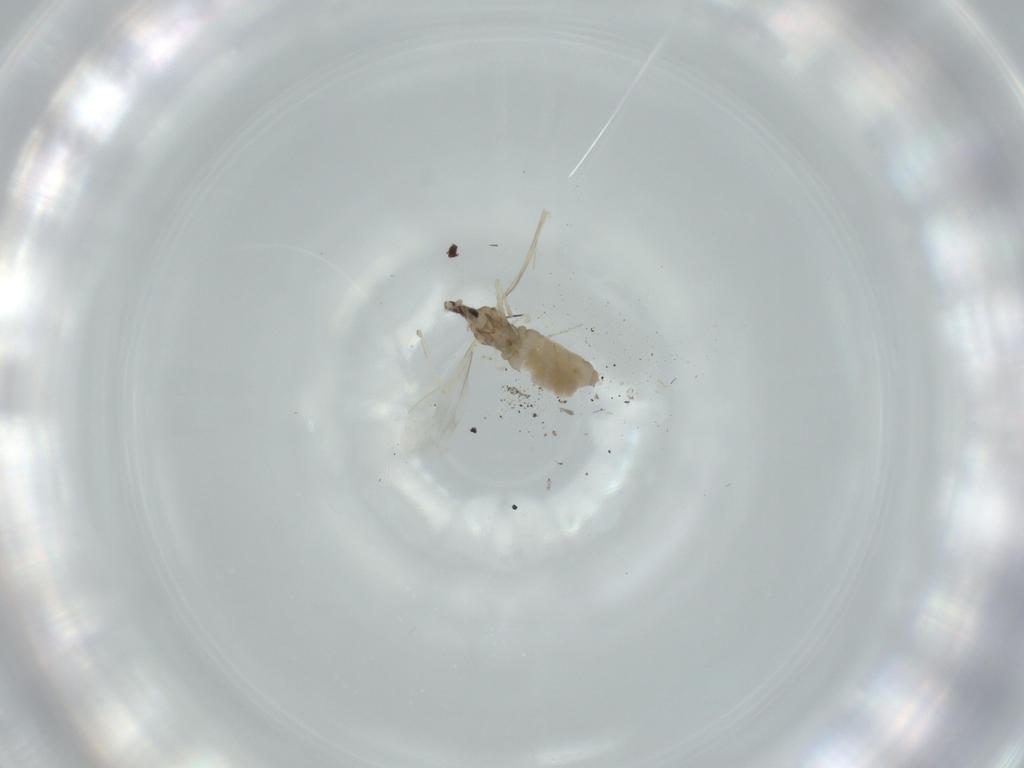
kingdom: Animalia
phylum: Arthropoda
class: Insecta
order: Diptera
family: Cecidomyiidae
